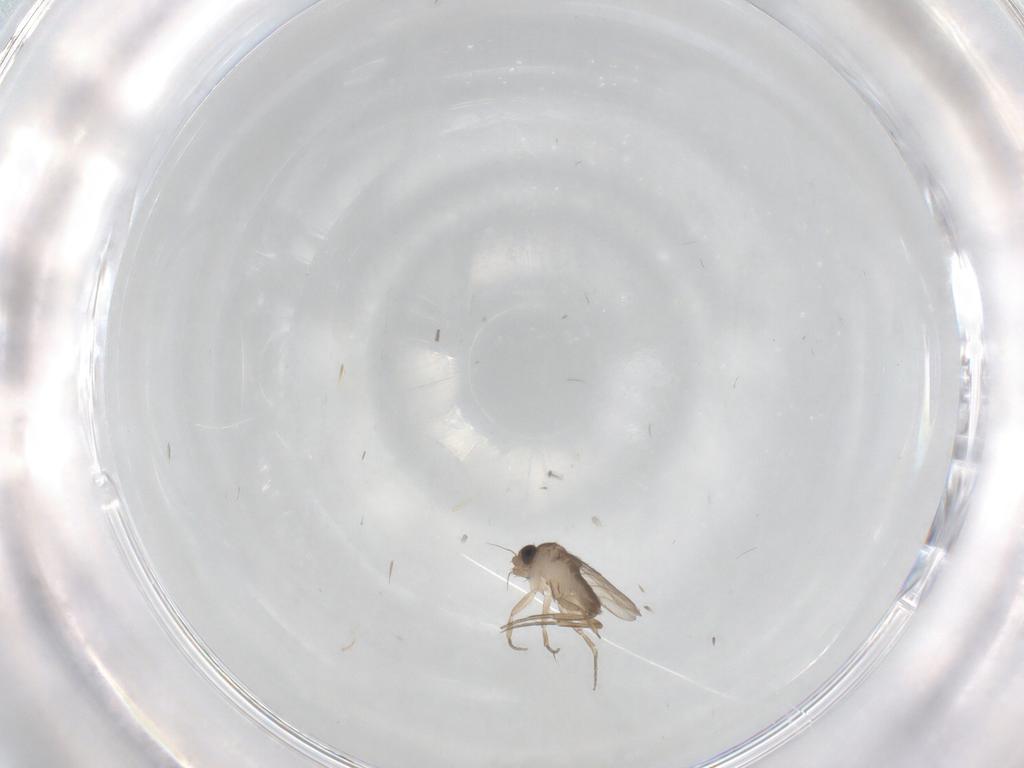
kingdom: Animalia
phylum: Arthropoda
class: Insecta
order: Diptera
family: Phoridae
